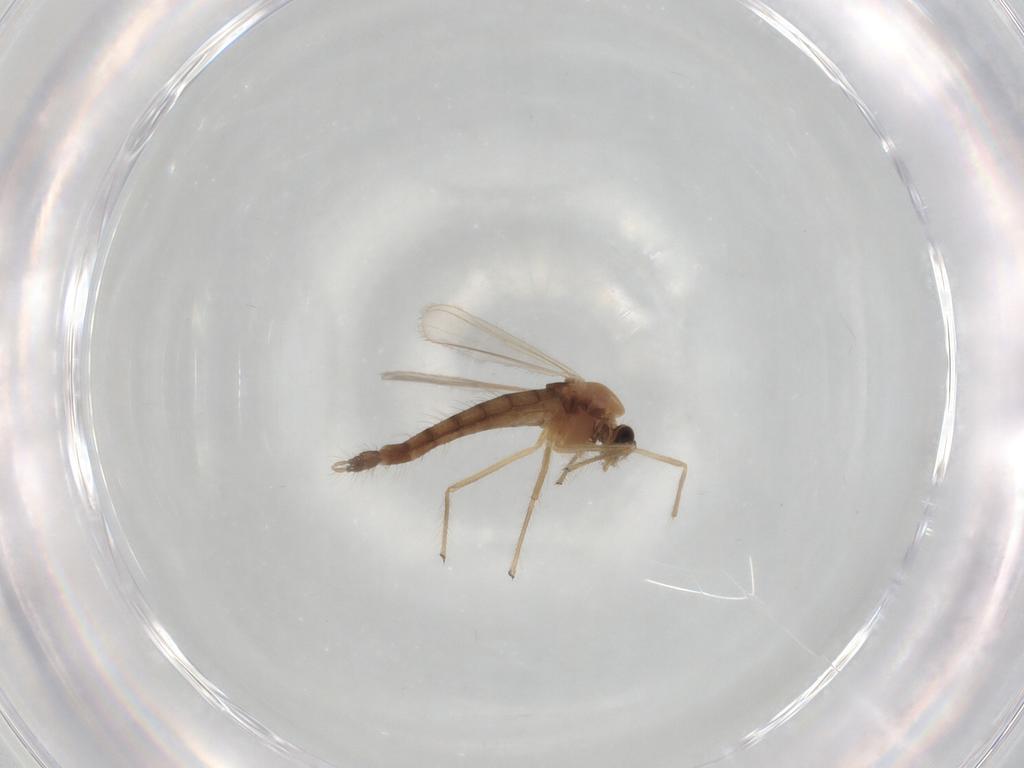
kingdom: Animalia
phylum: Arthropoda
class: Insecta
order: Diptera
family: Chironomidae
